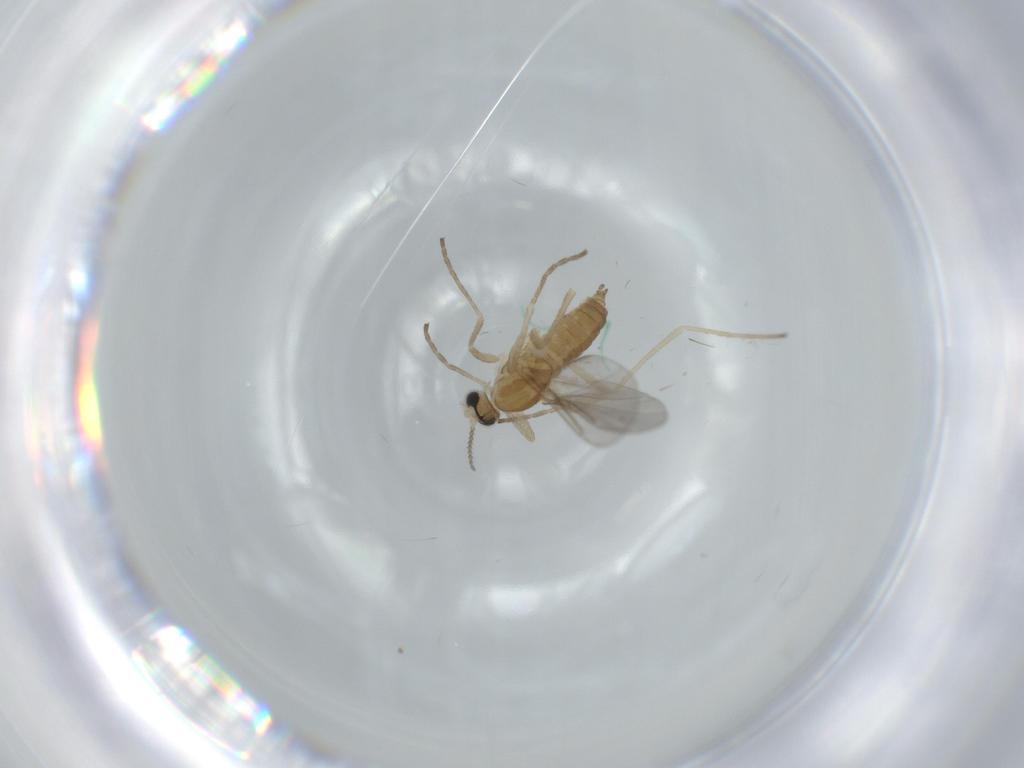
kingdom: Animalia
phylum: Arthropoda
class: Insecta
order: Diptera
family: Cecidomyiidae
